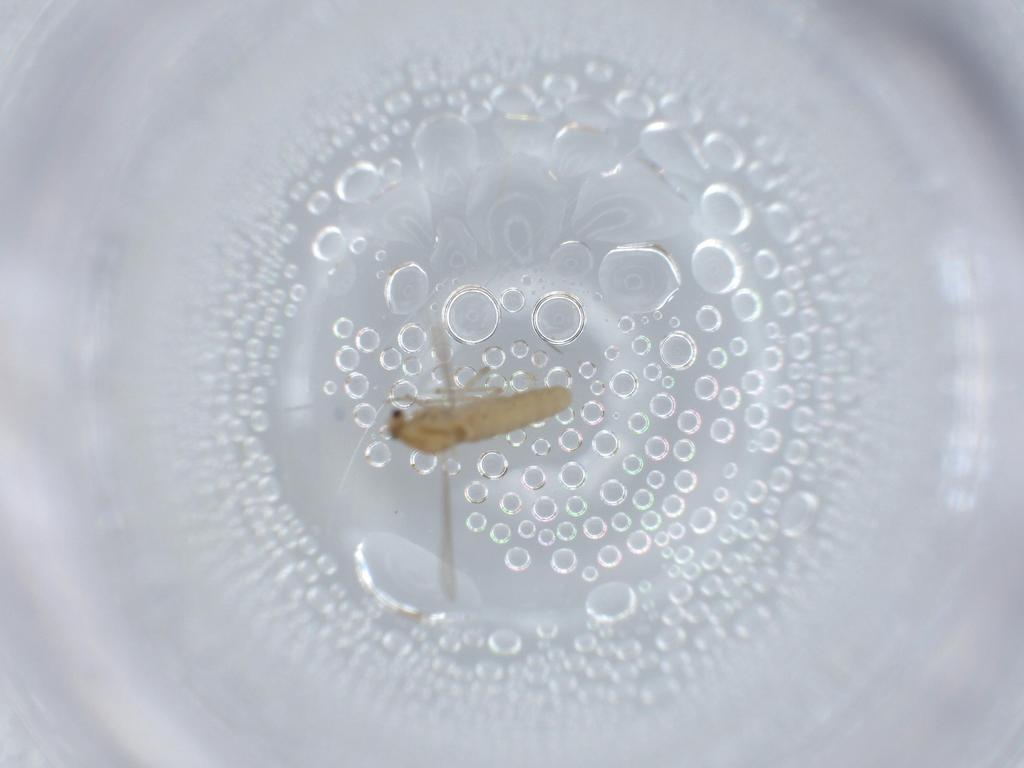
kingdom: Animalia
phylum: Arthropoda
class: Insecta
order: Diptera
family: Chironomidae
